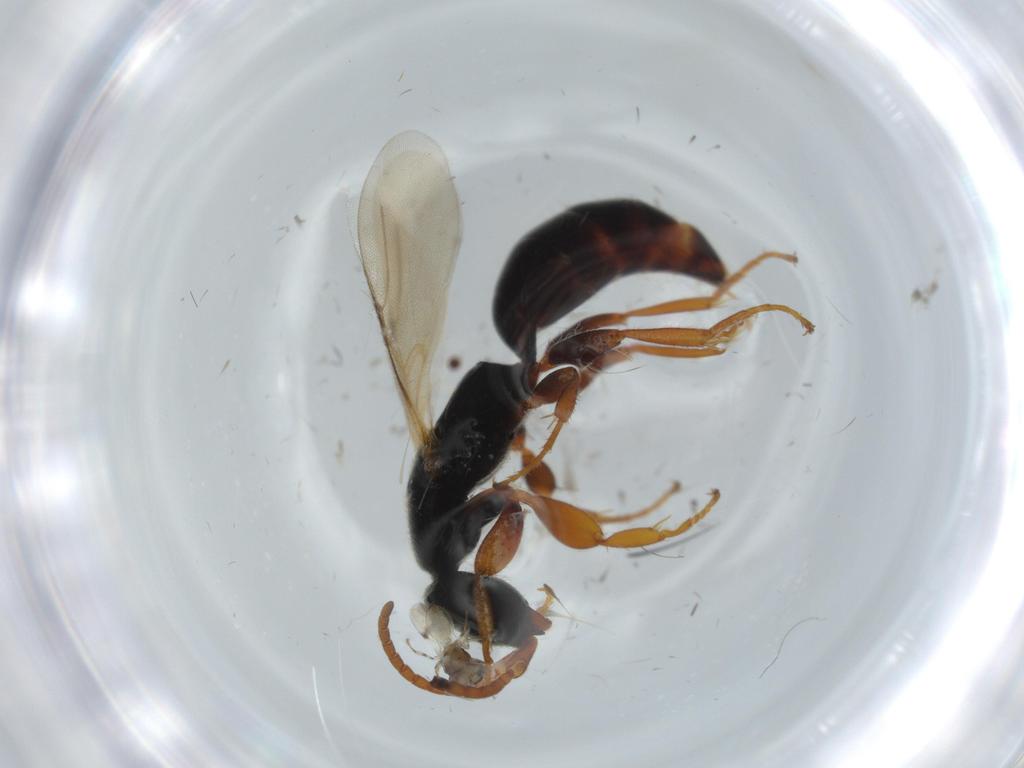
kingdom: Animalia
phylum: Arthropoda
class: Insecta
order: Hymenoptera
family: Bethylidae
